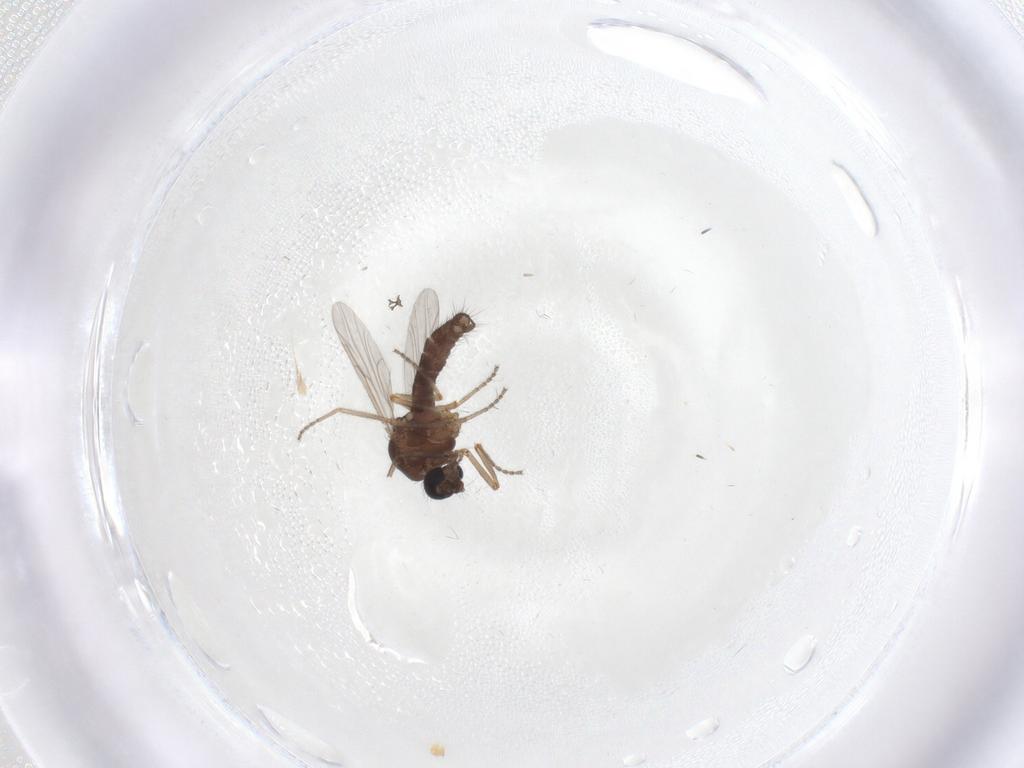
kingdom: Animalia
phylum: Arthropoda
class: Insecta
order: Diptera
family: Ceratopogonidae
